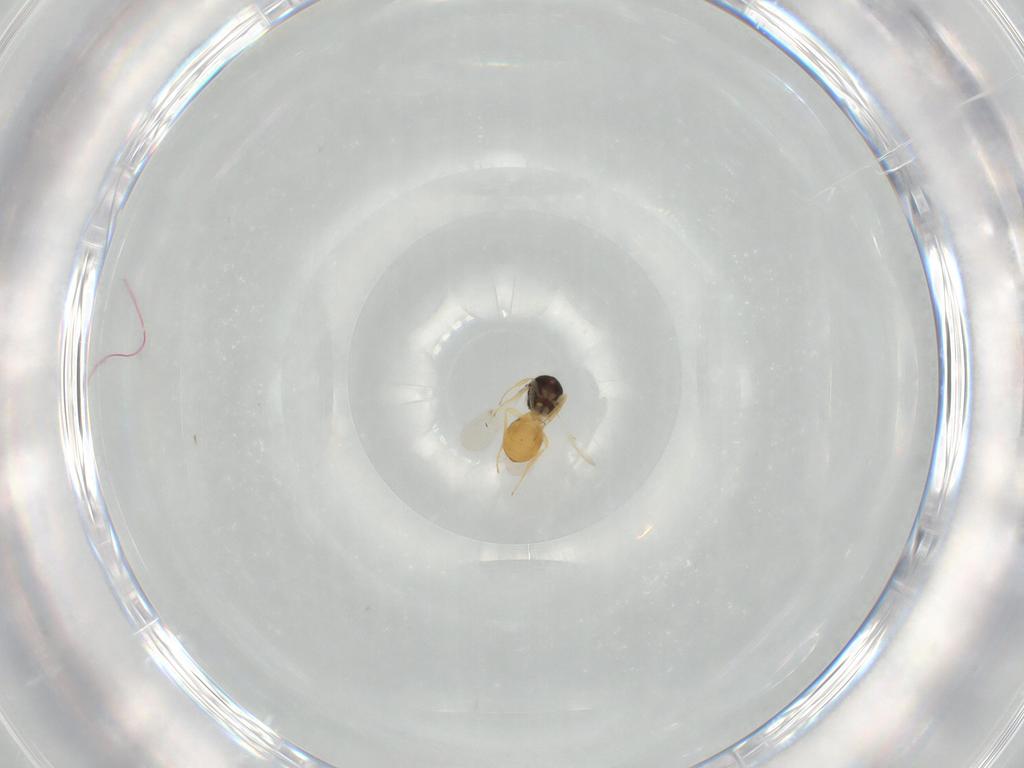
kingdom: Animalia
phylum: Arthropoda
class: Insecta
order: Hymenoptera
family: Scelionidae
